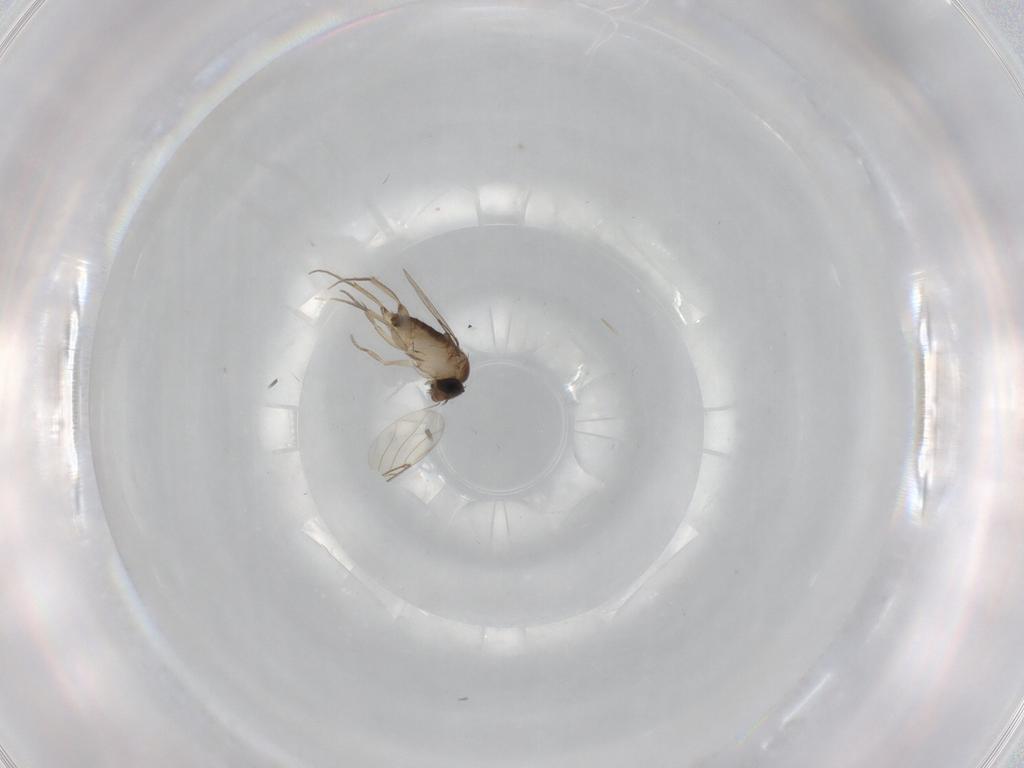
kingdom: Animalia
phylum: Arthropoda
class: Insecta
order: Diptera
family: Phoridae
